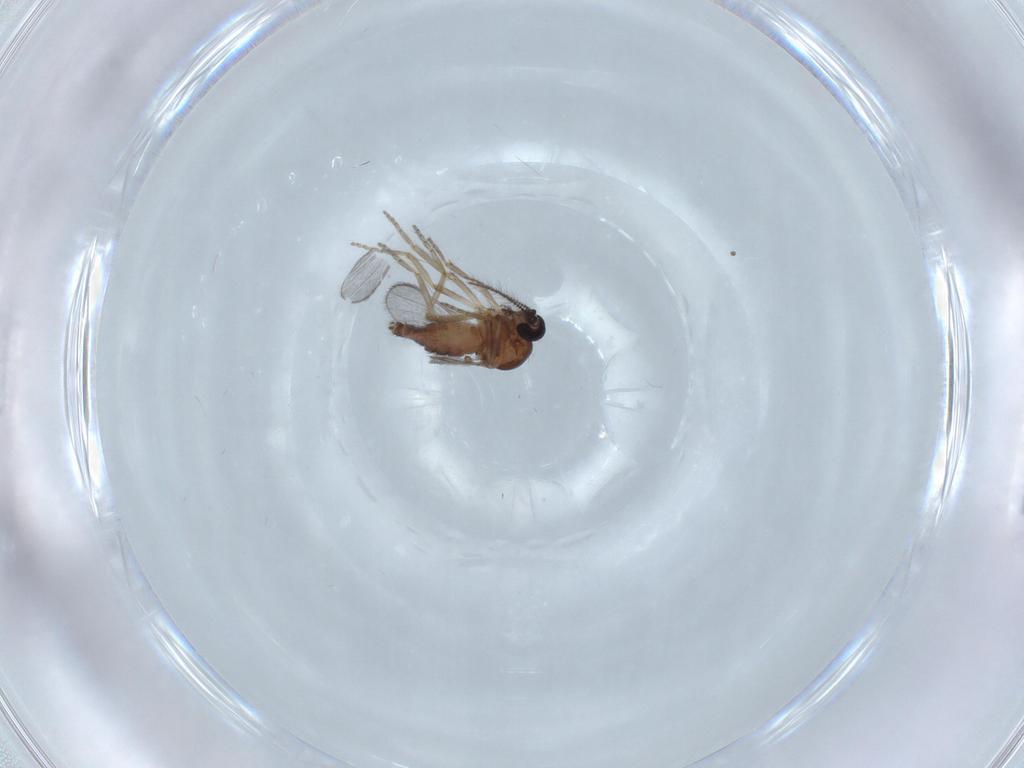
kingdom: Animalia
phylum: Arthropoda
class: Insecta
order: Diptera
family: Ceratopogonidae
